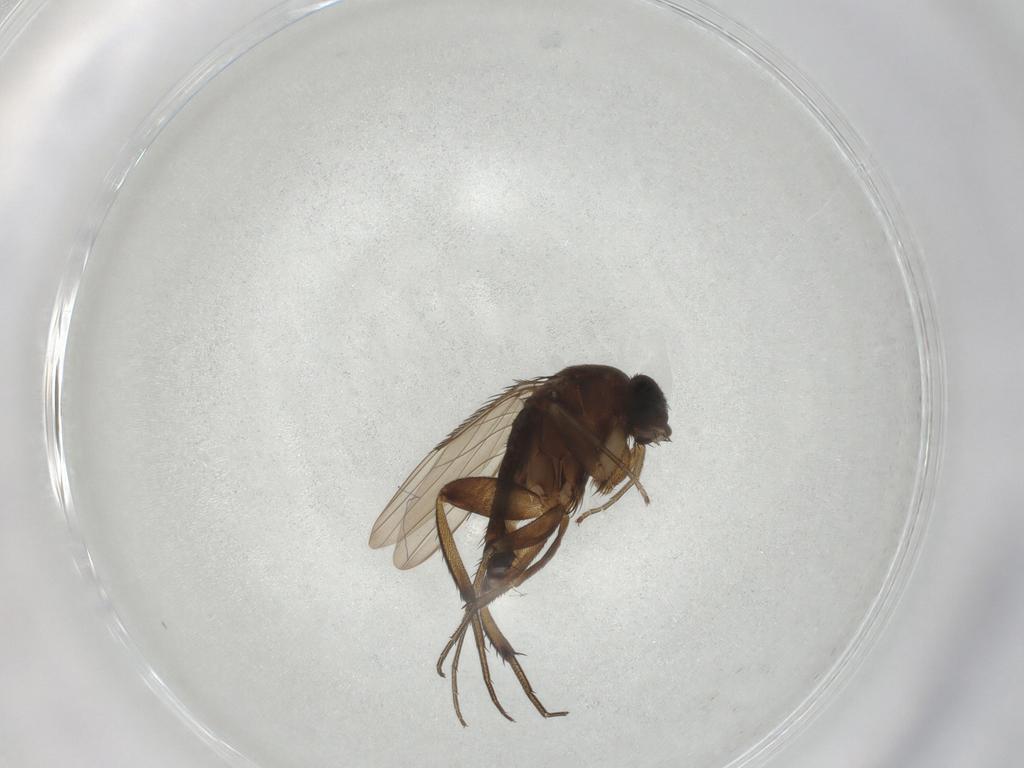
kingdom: Animalia
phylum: Arthropoda
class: Insecta
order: Diptera
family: Phoridae
